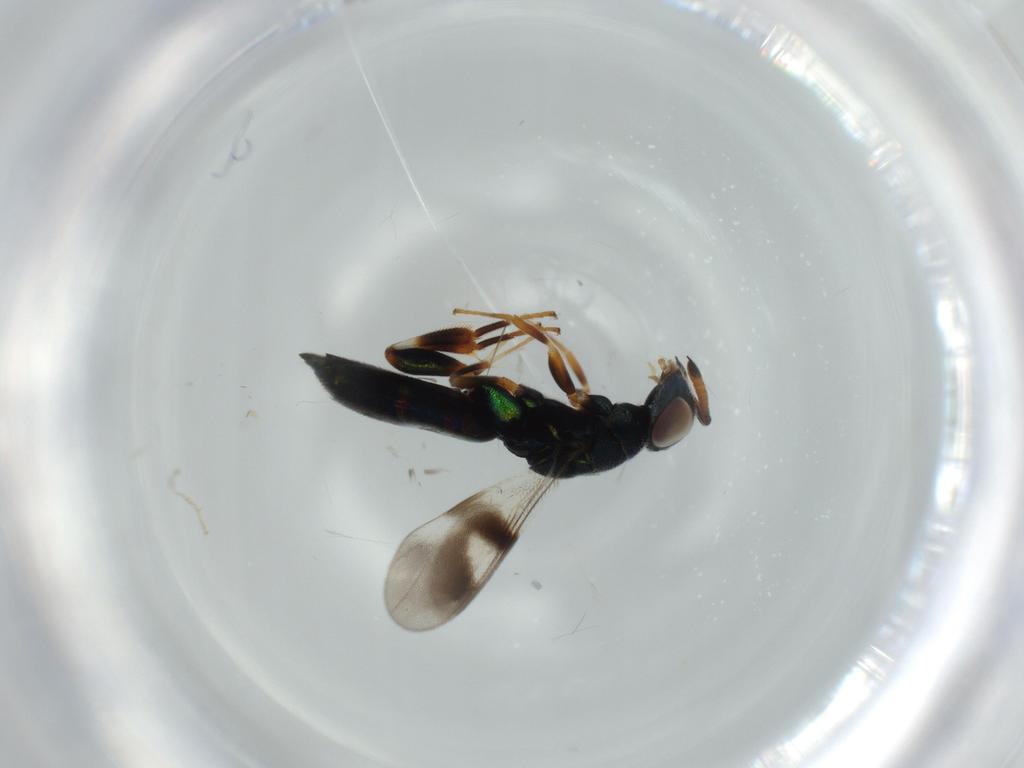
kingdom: Animalia
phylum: Arthropoda
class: Insecta
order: Hymenoptera
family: Cleonyminae
